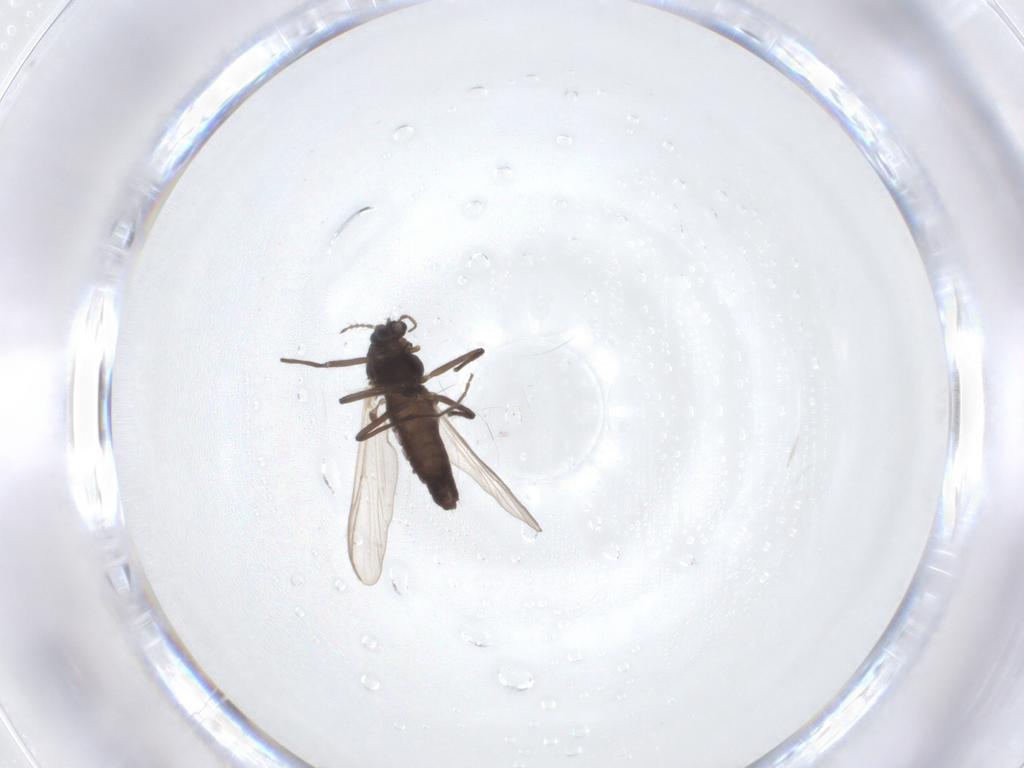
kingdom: Animalia
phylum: Arthropoda
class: Insecta
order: Diptera
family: Chironomidae
